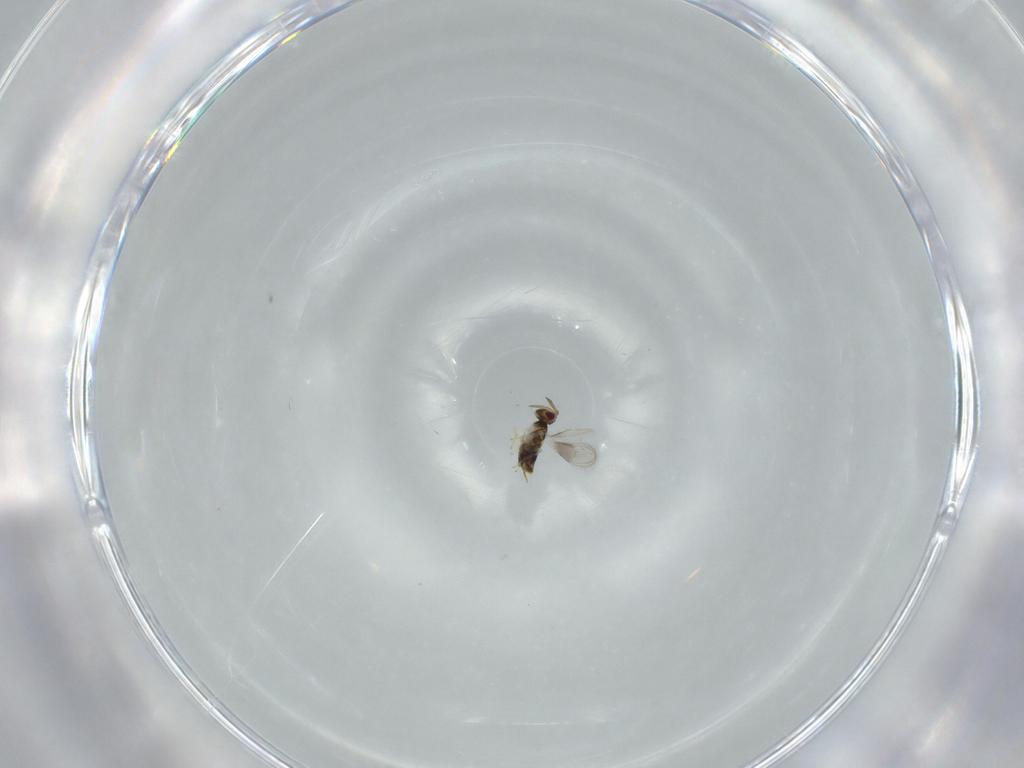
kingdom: Animalia
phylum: Arthropoda
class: Insecta
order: Hymenoptera
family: Aphelinidae
